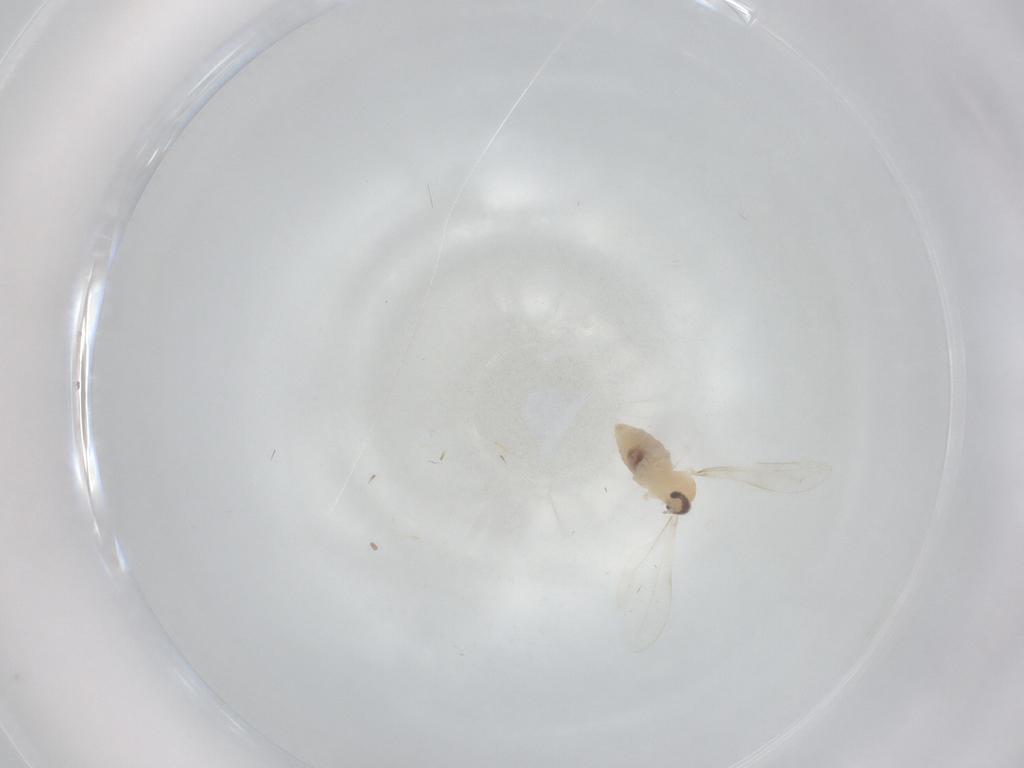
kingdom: Animalia
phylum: Arthropoda
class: Insecta
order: Diptera
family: Cecidomyiidae
